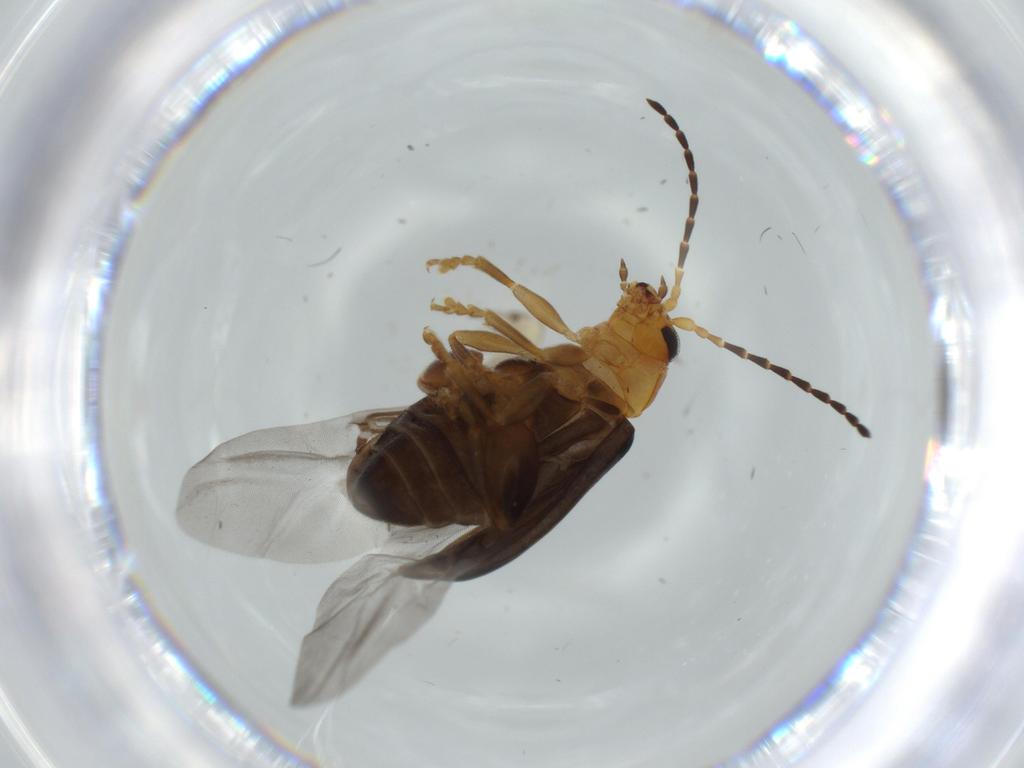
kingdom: Animalia
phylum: Arthropoda
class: Insecta
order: Coleoptera
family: Chrysomelidae
